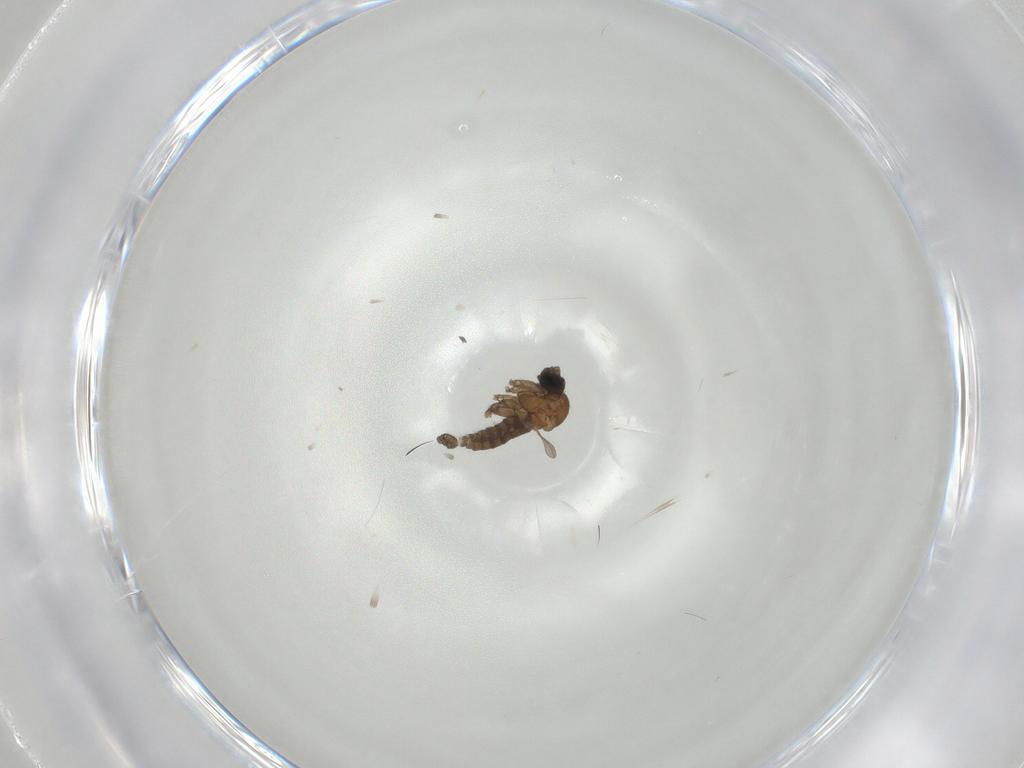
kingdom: Animalia
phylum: Arthropoda
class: Insecta
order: Diptera
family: Sciaridae
